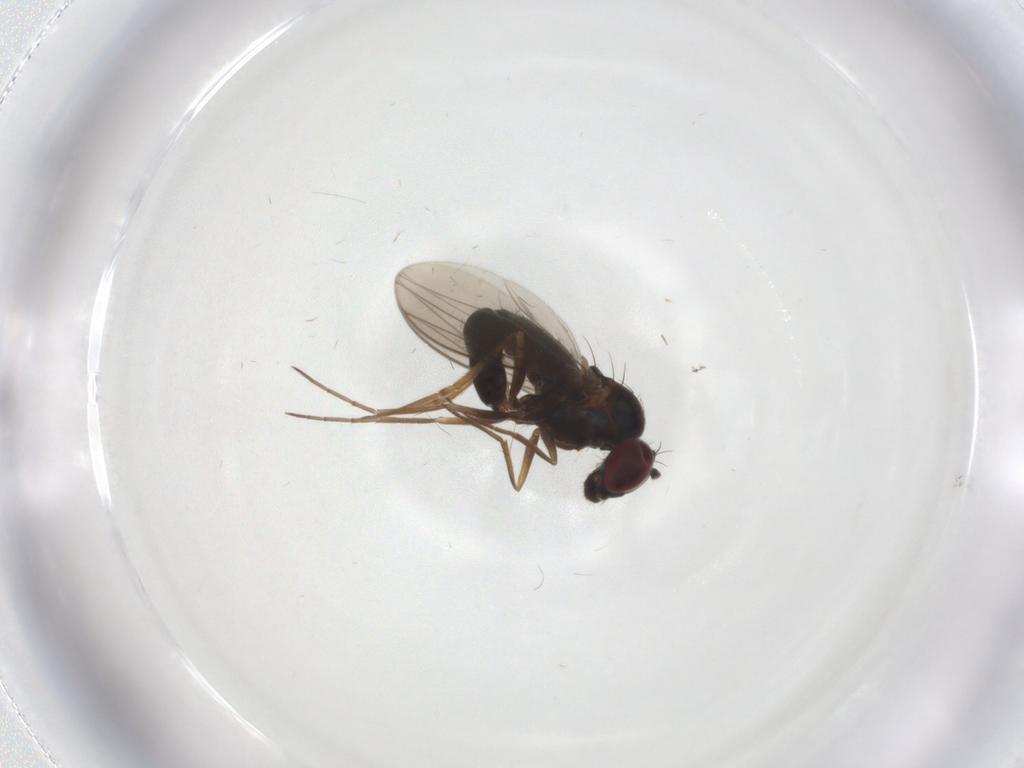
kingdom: Animalia
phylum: Arthropoda
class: Insecta
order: Diptera
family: Dolichopodidae
